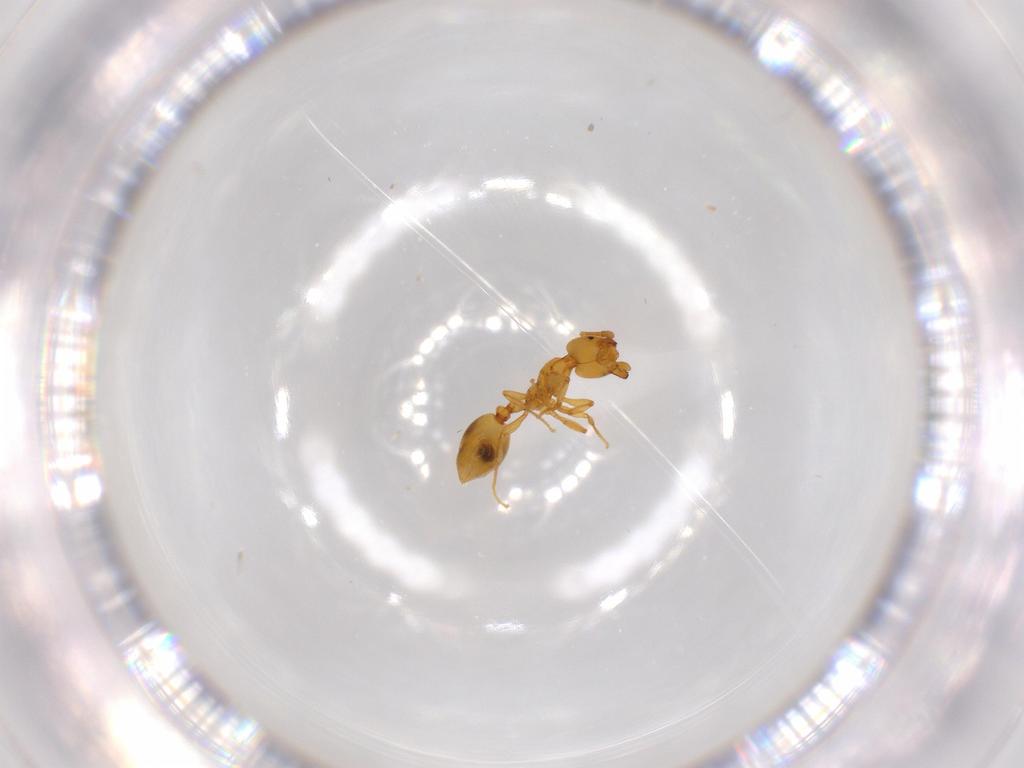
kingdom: Animalia
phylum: Arthropoda
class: Insecta
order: Hymenoptera
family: Formicidae
